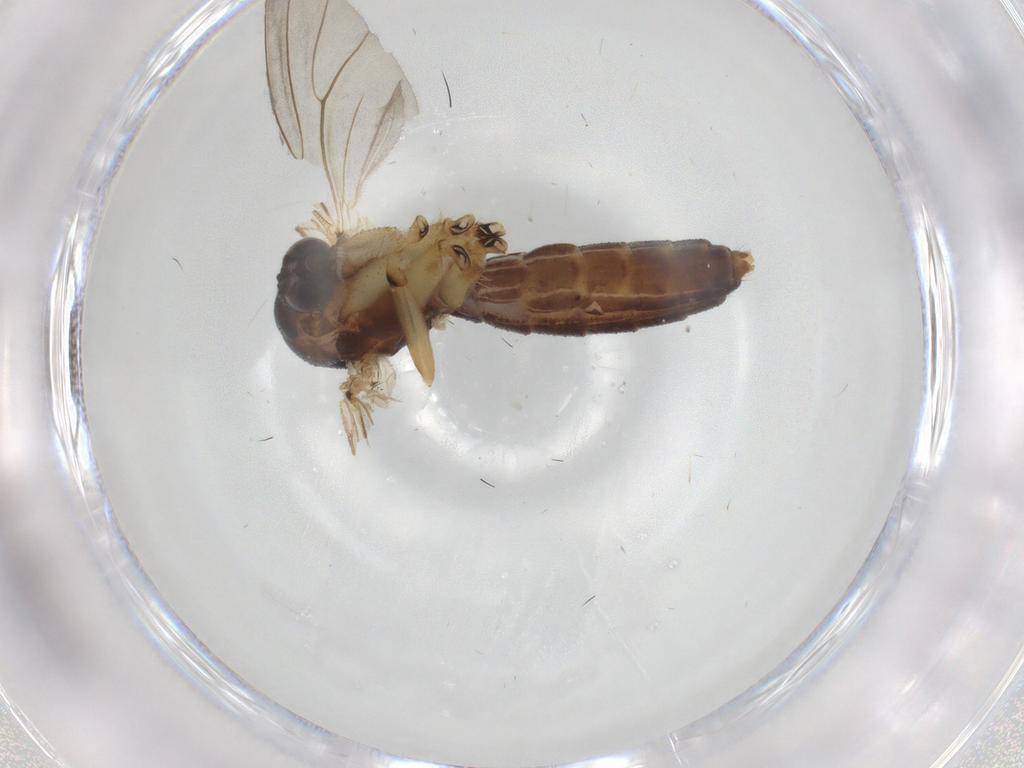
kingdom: Animalia
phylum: Arthropoda
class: Insecta
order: Diptera
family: Mycetophilidae
